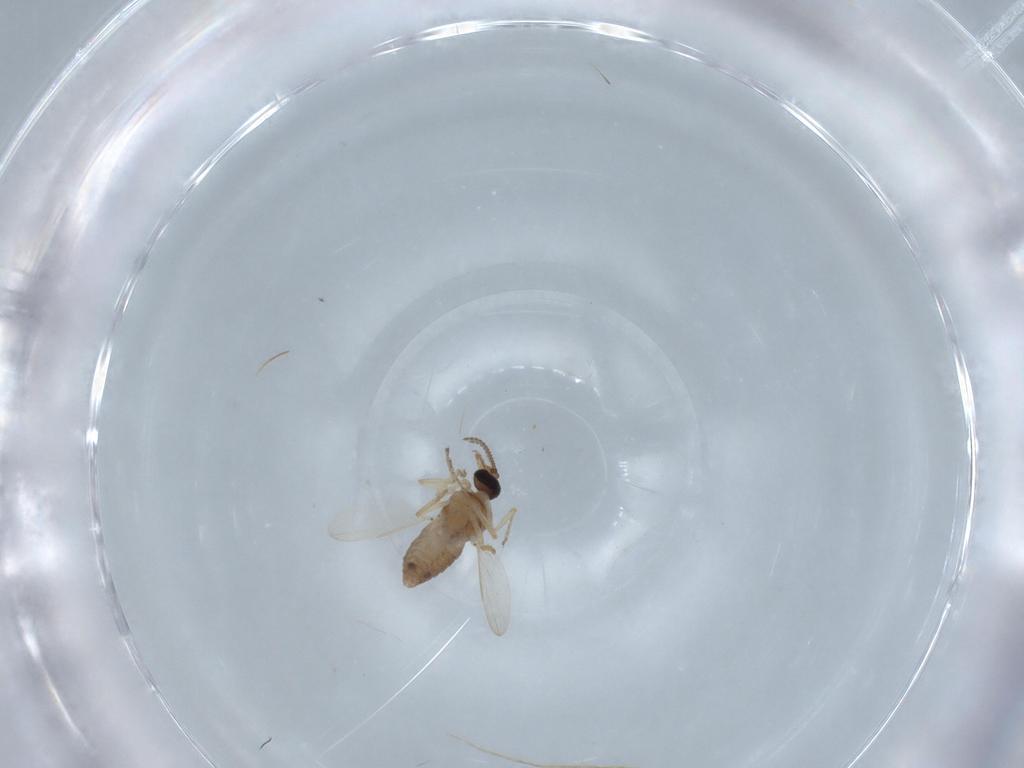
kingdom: Animalia
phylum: Arthropoda
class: Insecta
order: Diptera
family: Ceratopogonidae
